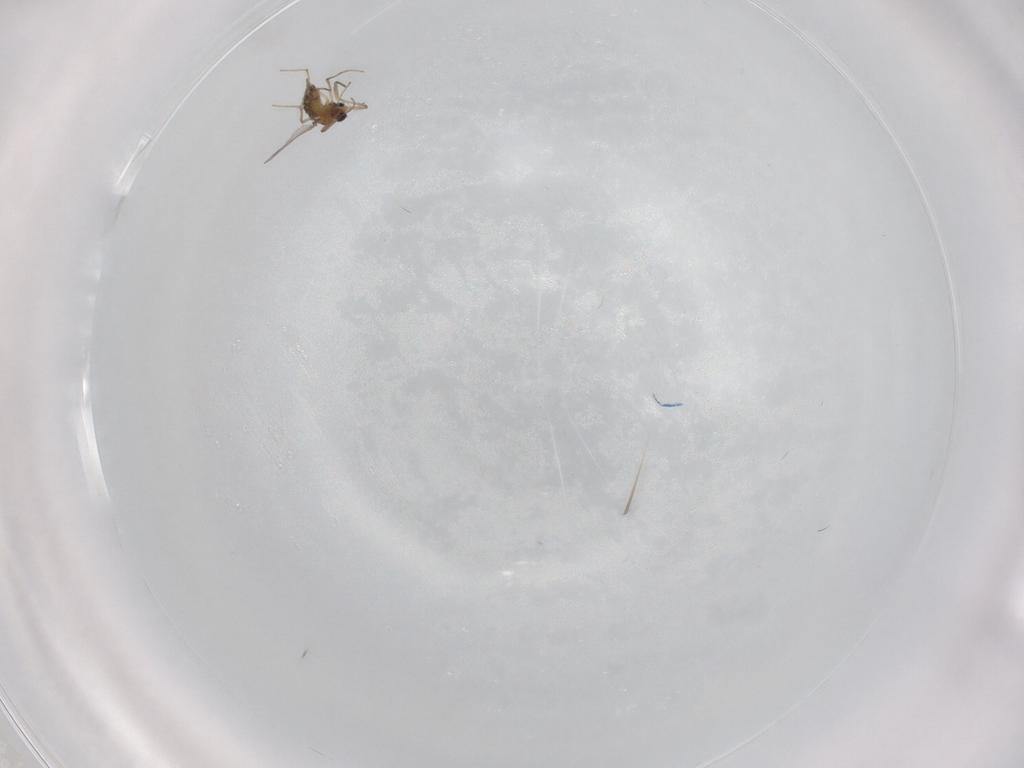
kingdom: Animalia
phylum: Arthropoda
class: Insecta
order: Diptera
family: Chironomidae
